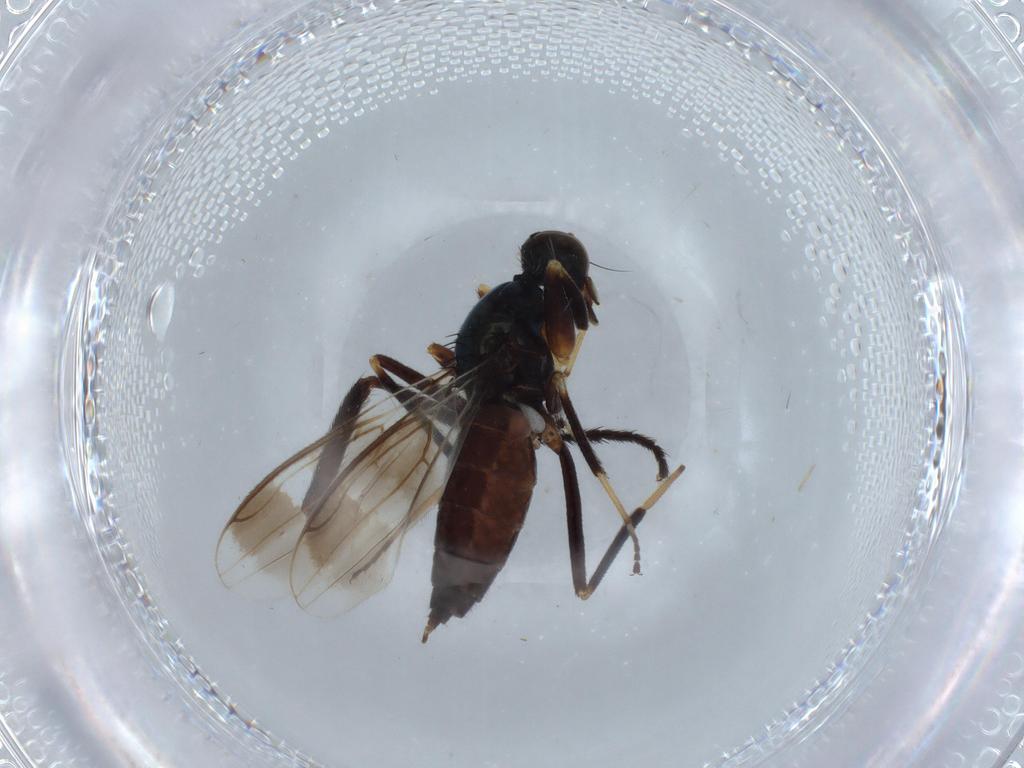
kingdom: Animalia
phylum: Arthropoda
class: Insecta
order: Diptera
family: Hybotidae
